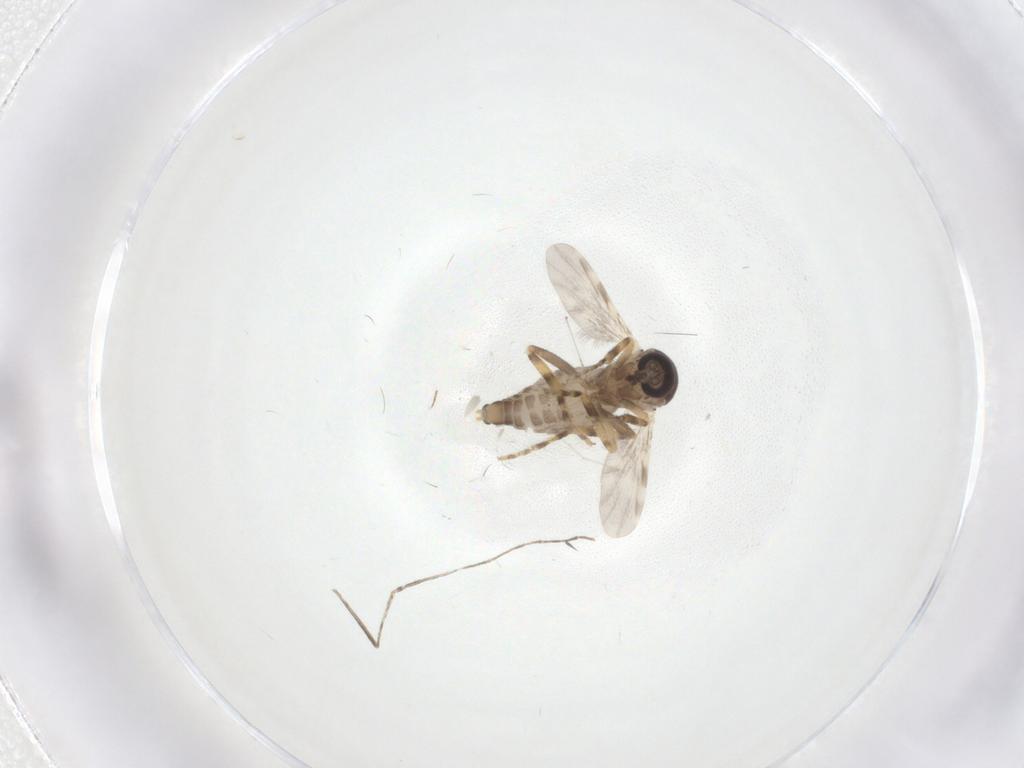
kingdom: Animalia
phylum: Arthropoda
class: Insecta
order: Diptera
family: Ceratopogonidae
